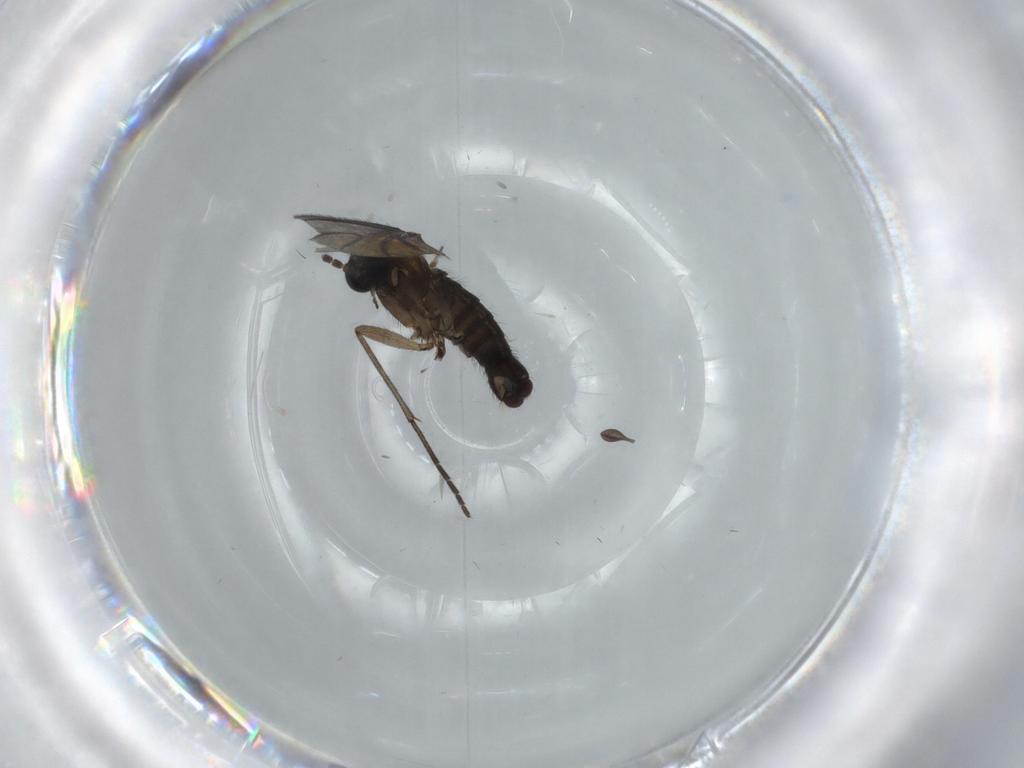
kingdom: Animalia
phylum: Arthropoda
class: Insecta
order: Diptera
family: Sciaridae
